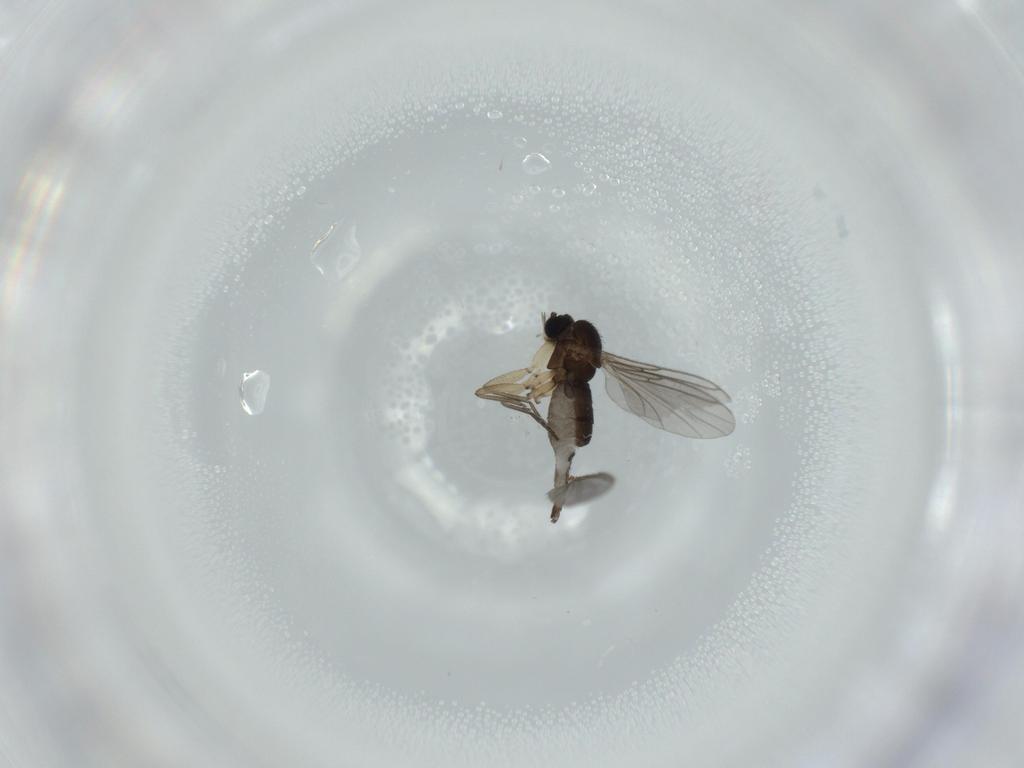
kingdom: Animalia
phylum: Arthropoda
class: Insecta
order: Diptera
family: Sciaridae
